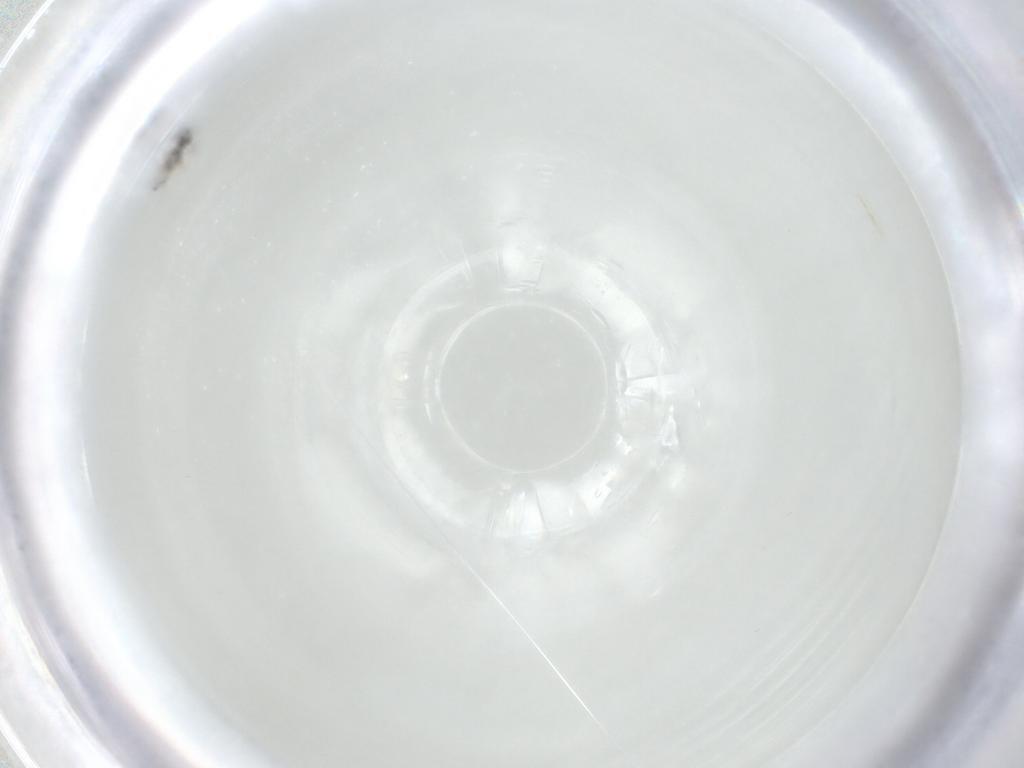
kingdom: Animalia
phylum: Arthropoda
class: Insecta
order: Diptera
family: Ceratopogonidae
